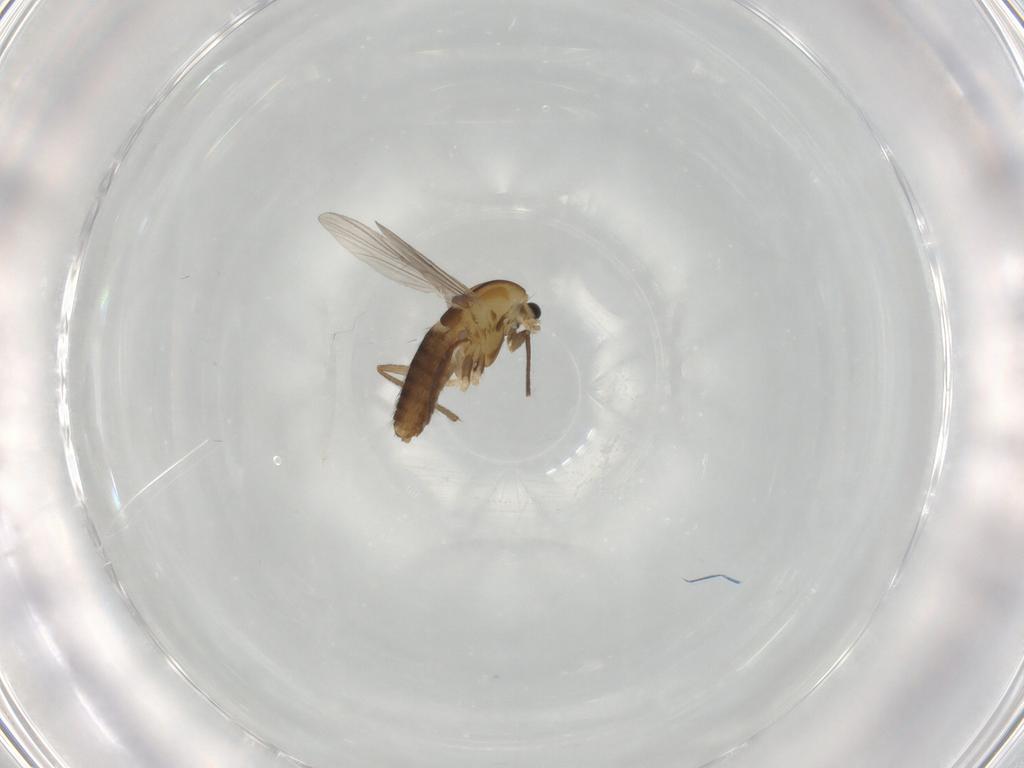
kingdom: Animalia
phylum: Arthropoda
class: Insecta
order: Diptera
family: Chironomidae
